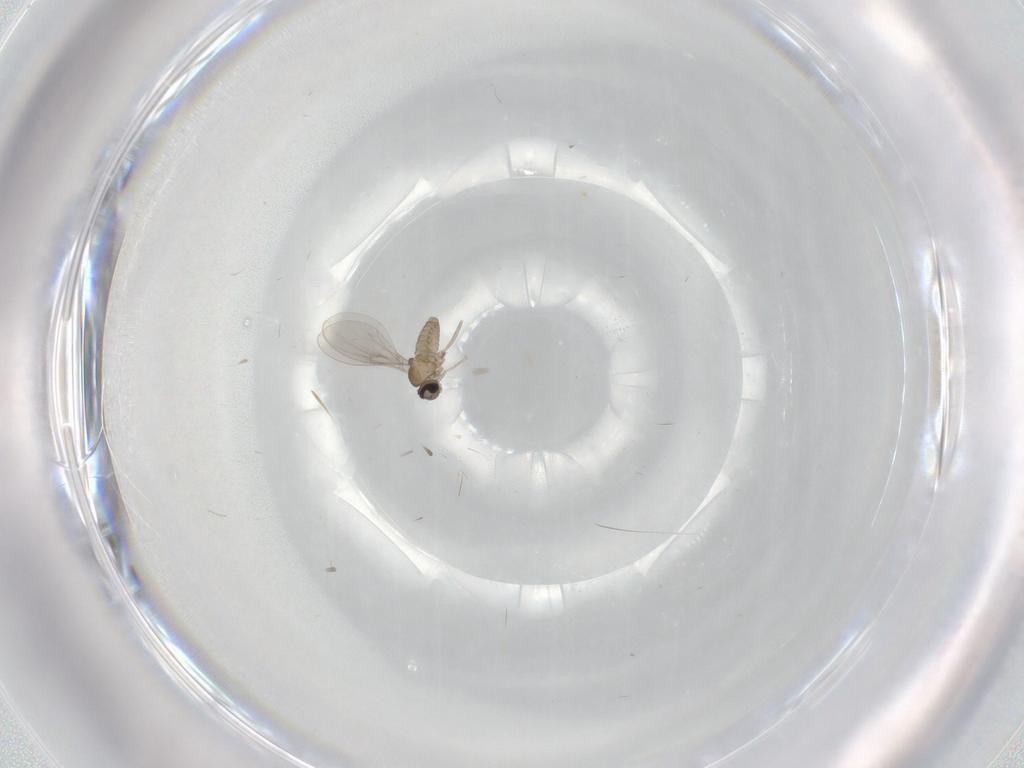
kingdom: Animalia
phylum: Arthropoda
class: Insecta
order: Diptera
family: Cecidomyiidae
